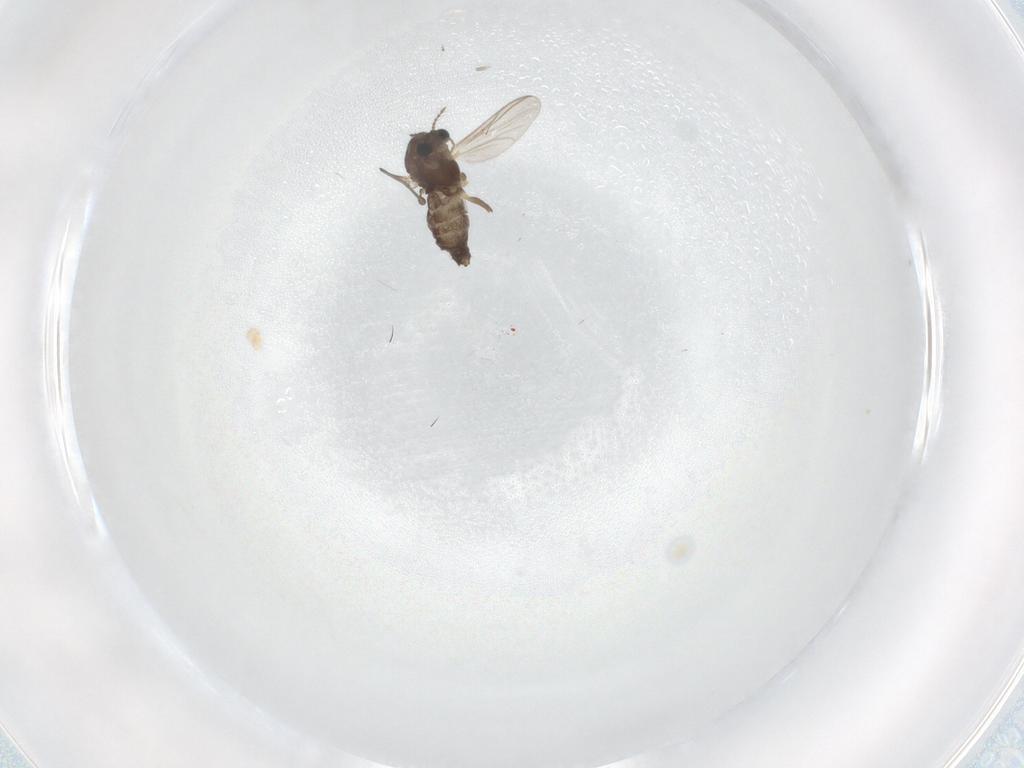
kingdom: Animalia
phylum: Arthropoda
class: Insecta
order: Diptera
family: Chironomidae
